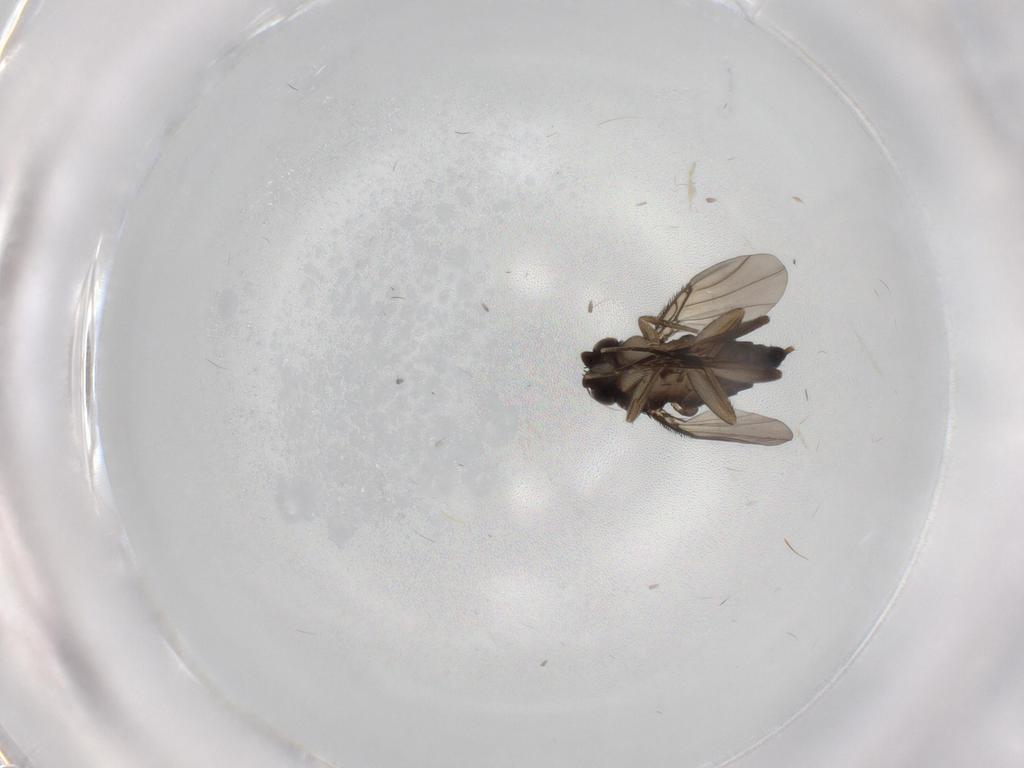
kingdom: Animalia
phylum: Arthropoda
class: Insecta
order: Diptera
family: Phoridae
